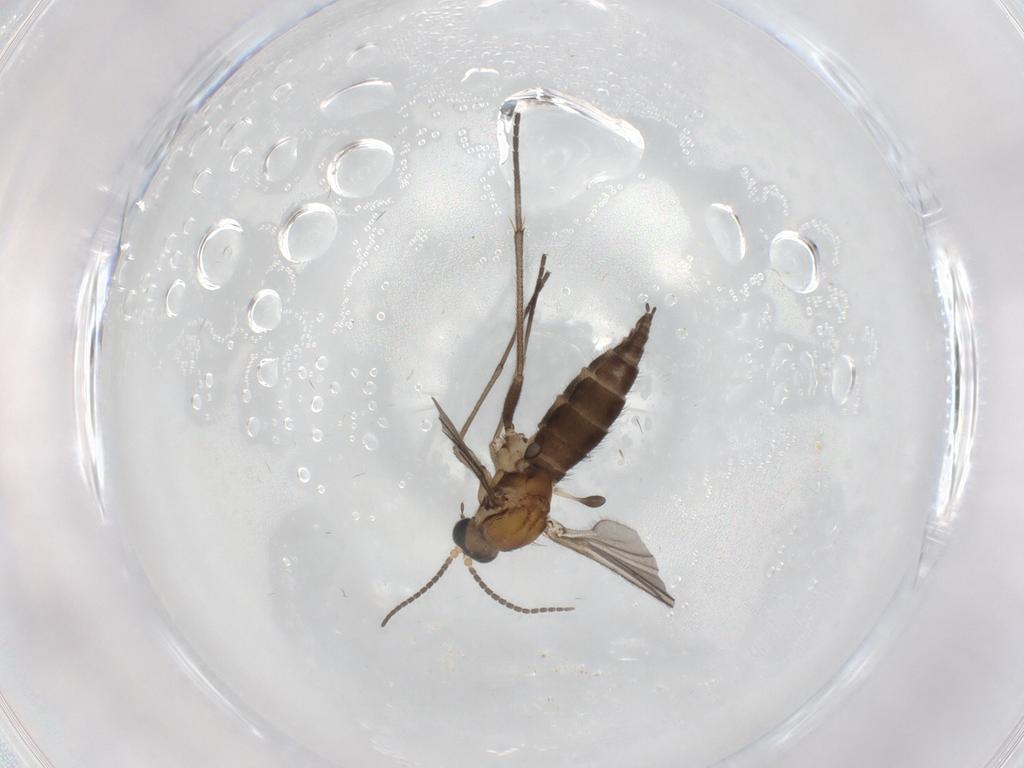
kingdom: Animalia
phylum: Arthropoda
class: Insecta
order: Diptera
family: Sciaridae
